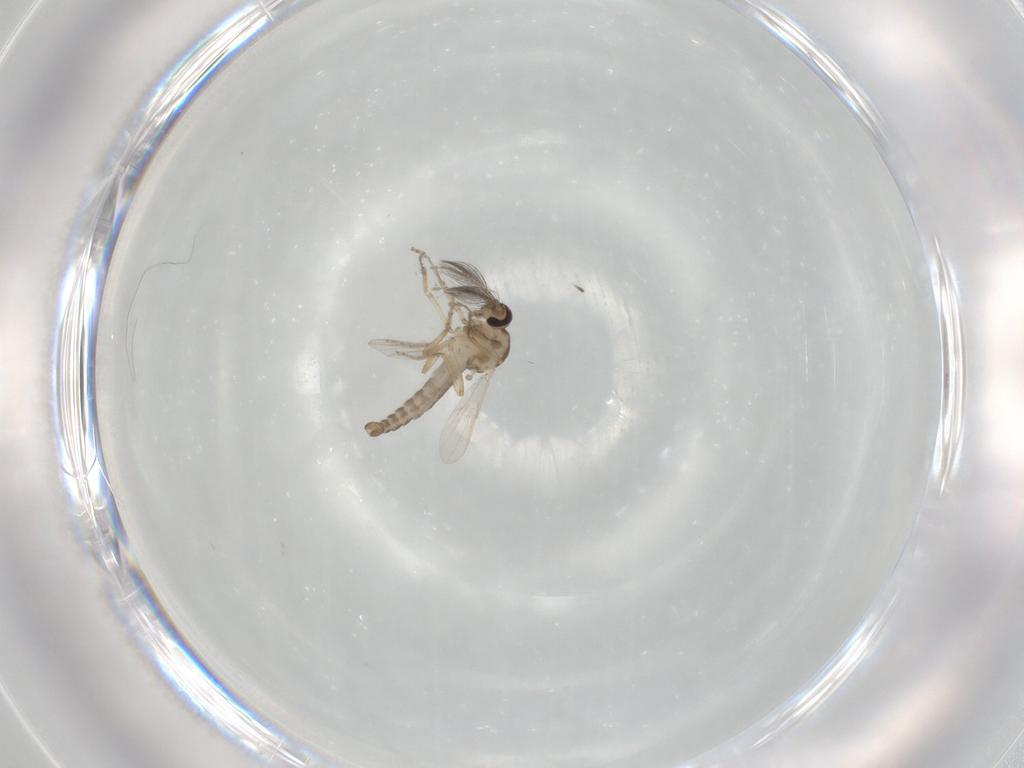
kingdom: Animalia
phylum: Arthropoda
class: Insecta
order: Diptera
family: Ceratopogonidae
